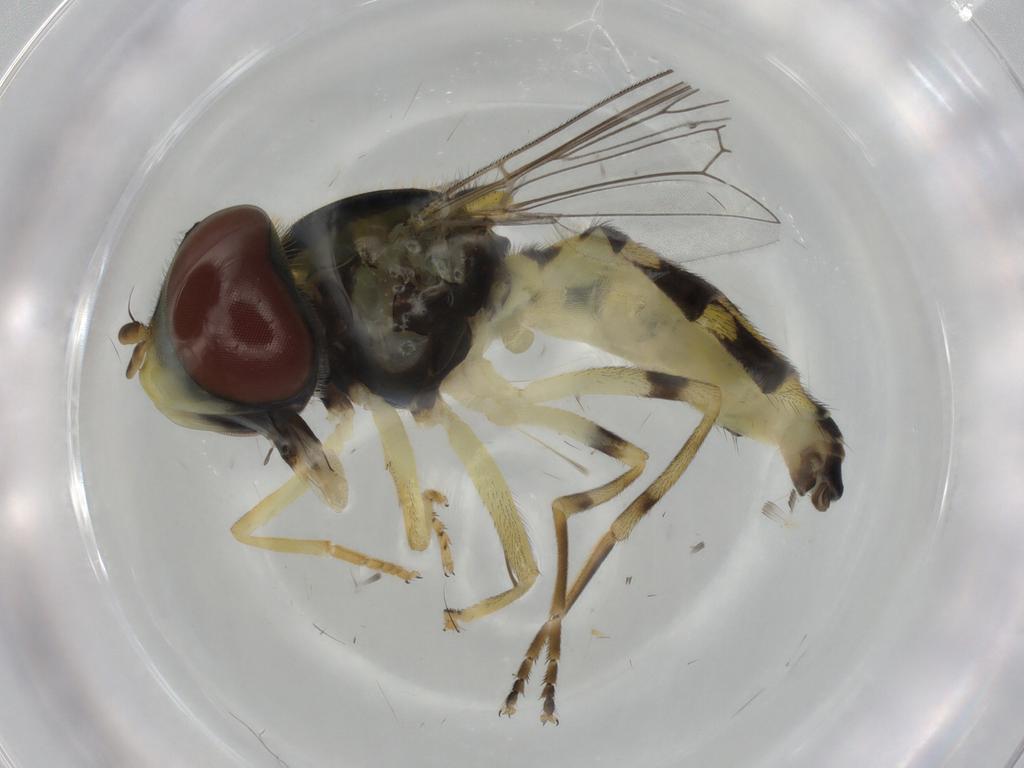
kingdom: Animalia
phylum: Arthropoda
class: Insecta
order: Diptera
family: Syrphidae
